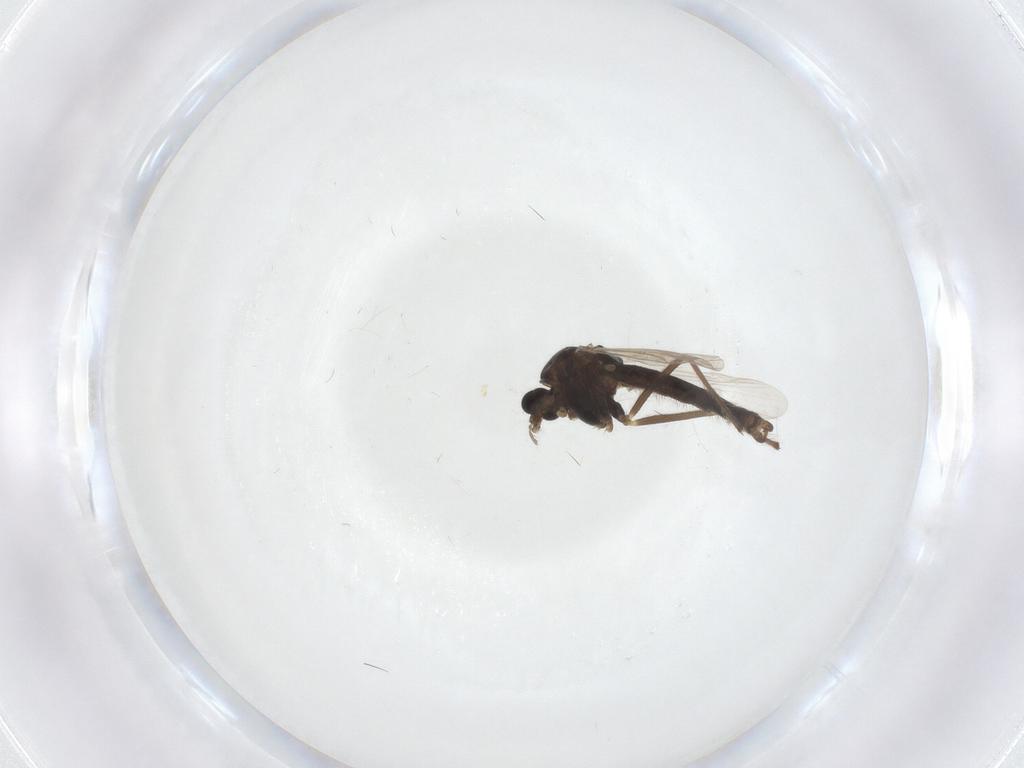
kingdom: Animalia
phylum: Arthropoda
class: Insecta
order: Diptera
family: Chironomidae
